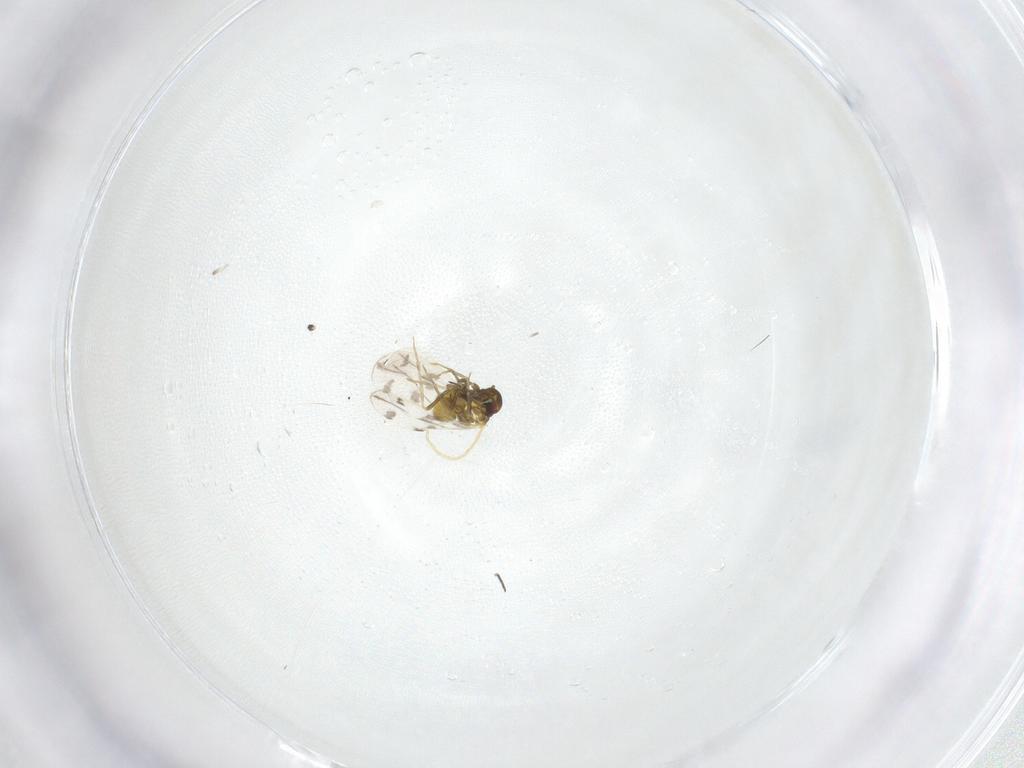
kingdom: Animalia
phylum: Arthropoda
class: Insecta
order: Hemiptera
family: Aleyrodidae
